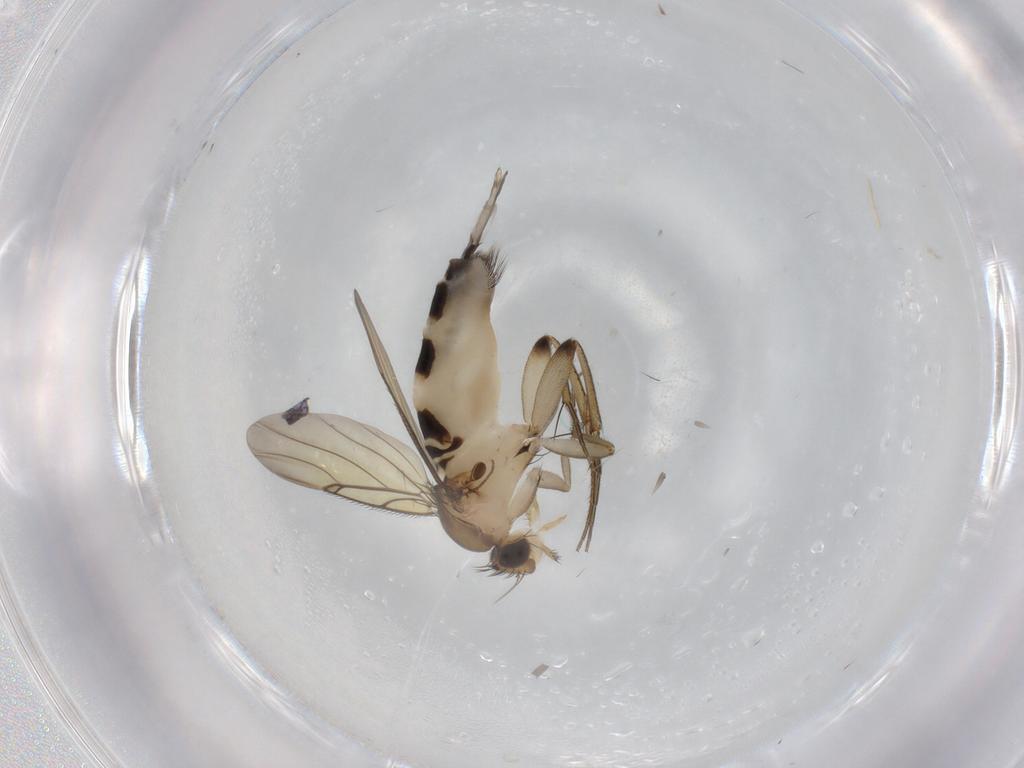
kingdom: Animalia
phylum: Arthropoda
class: Insecta
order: Diptera
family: Phoridae
